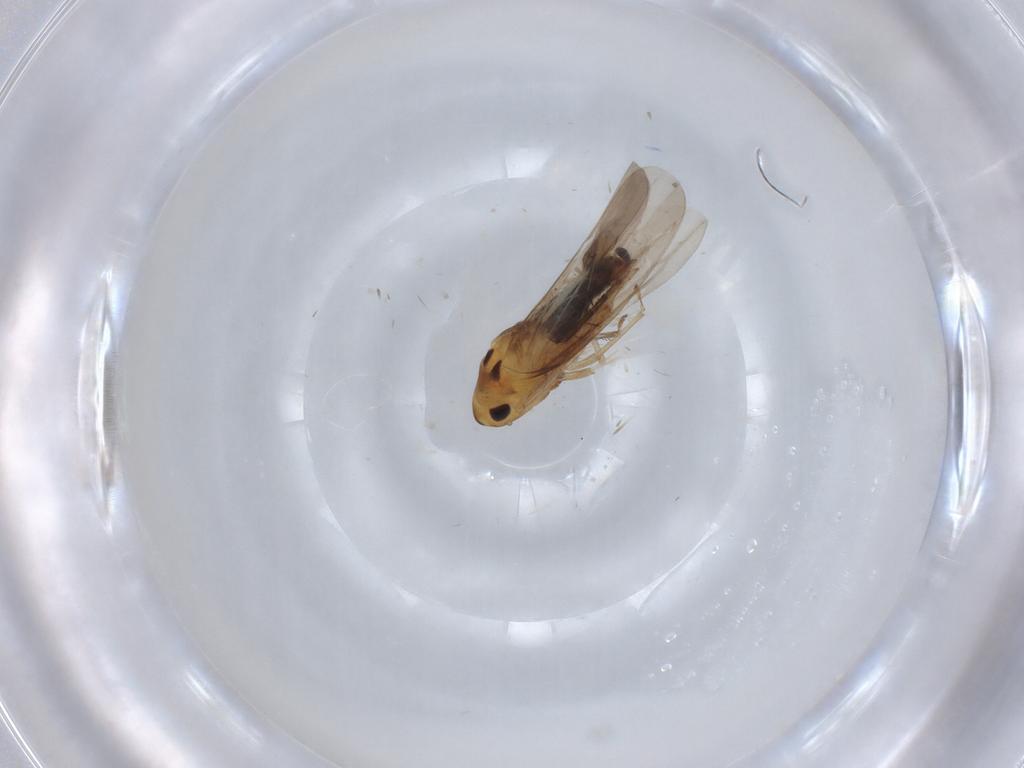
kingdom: Animalia
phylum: Arthropoda
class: Insecta
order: Hemiptera
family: Cicadellidae
